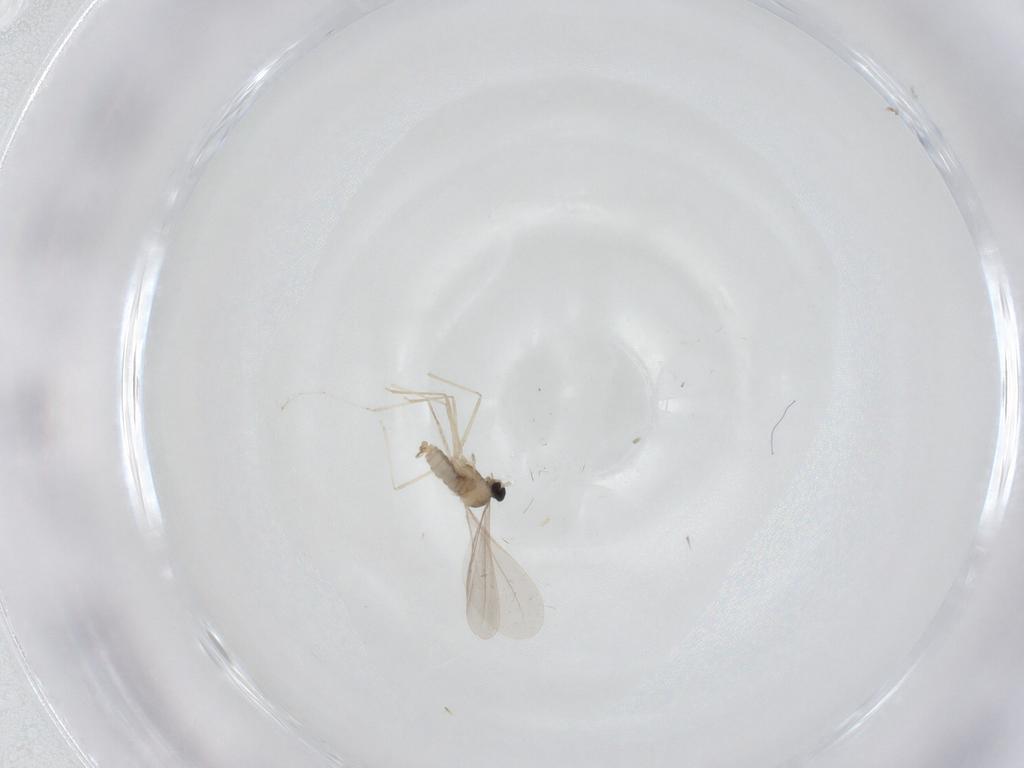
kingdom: Animalia
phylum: Arthropoda
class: Insecta
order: Diptera
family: Cecidomyiidae
